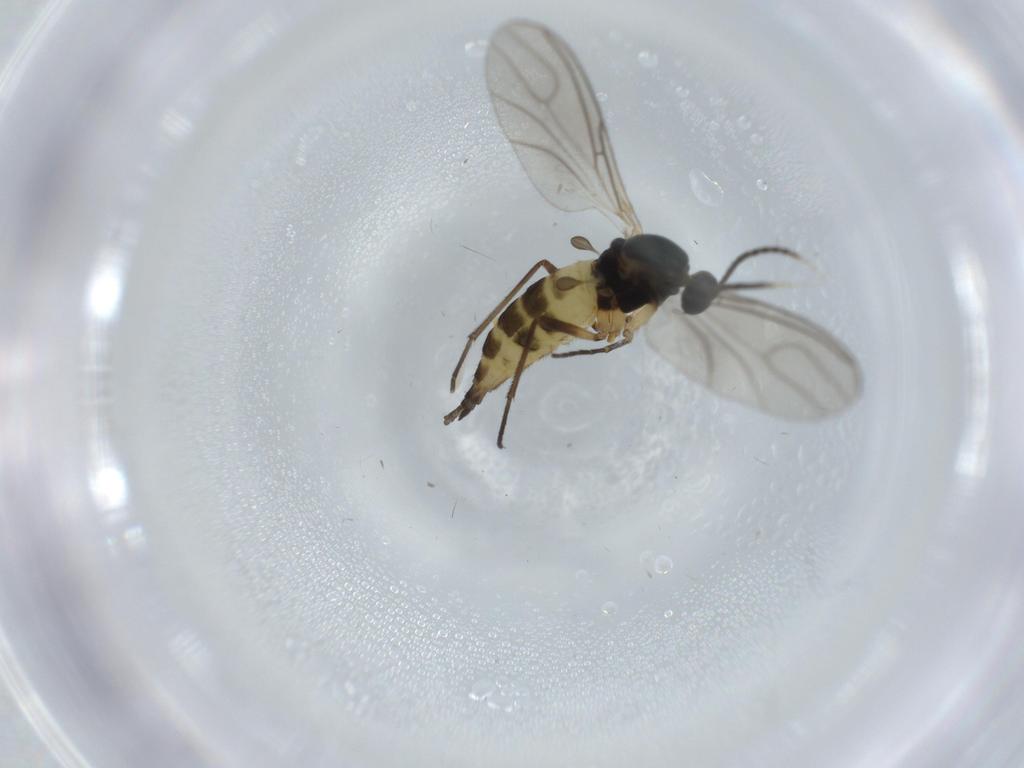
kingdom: Animalia
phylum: Arthropoda
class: Insecta
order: Diptera
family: Sciaridae
